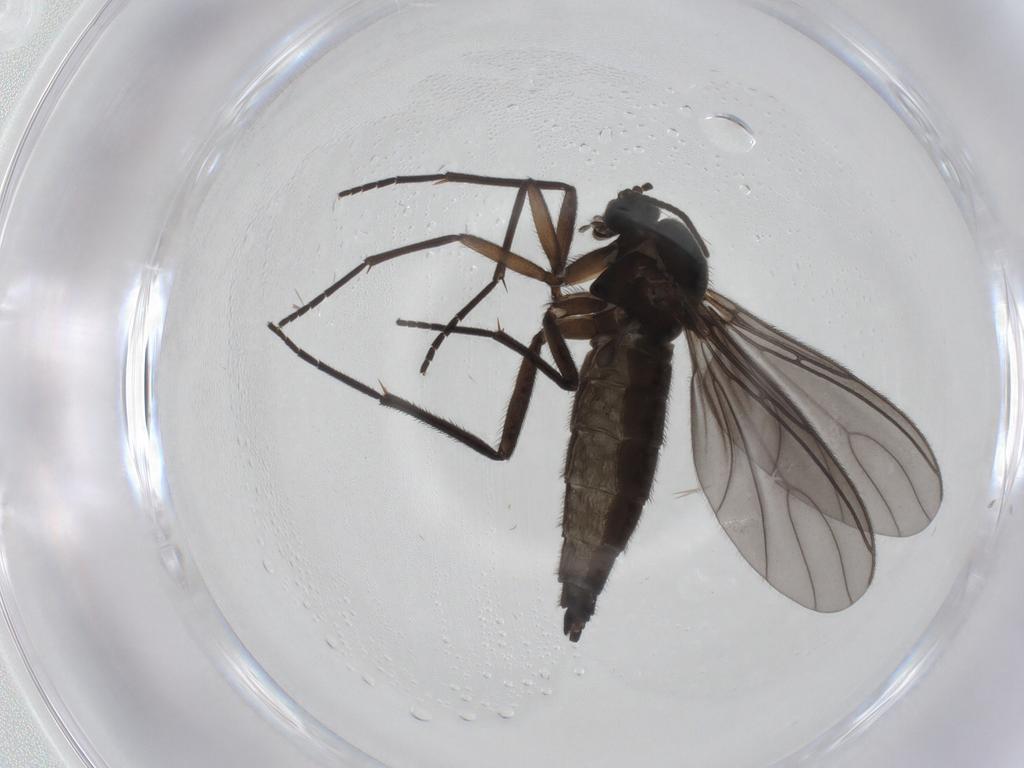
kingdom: Animalia
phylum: Arthropoda
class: Insecta
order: Diptera
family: Sciaridae
